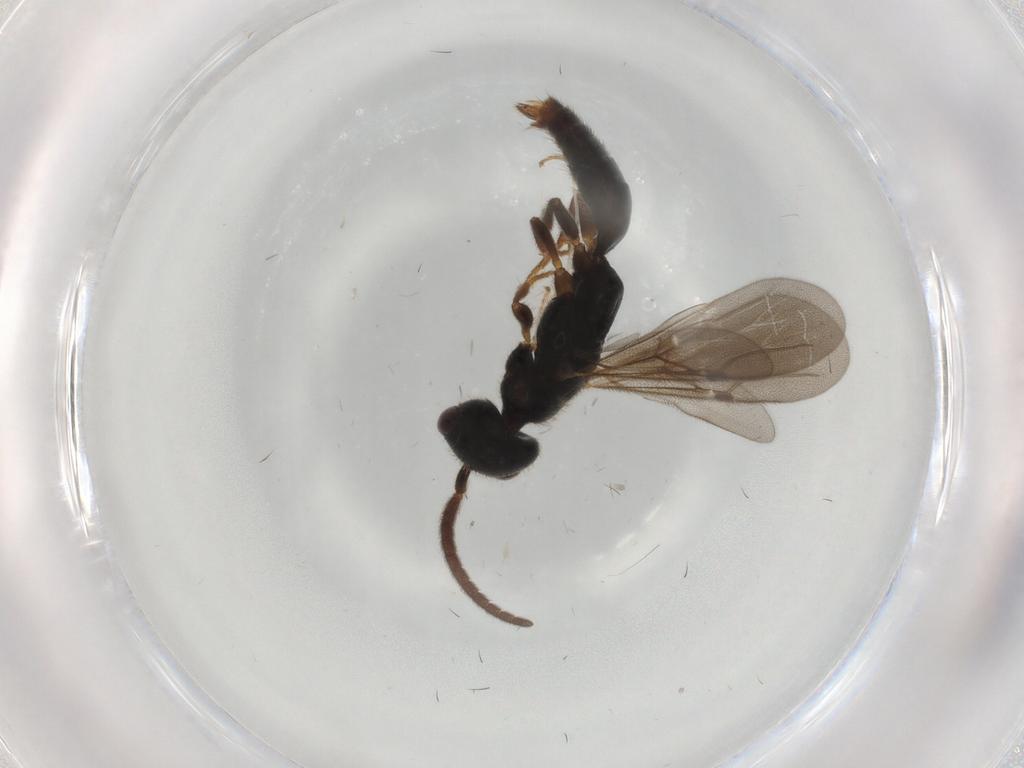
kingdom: Animalia
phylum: Arthropoda
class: Insecta
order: Hymenoptera
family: Bethylidae
